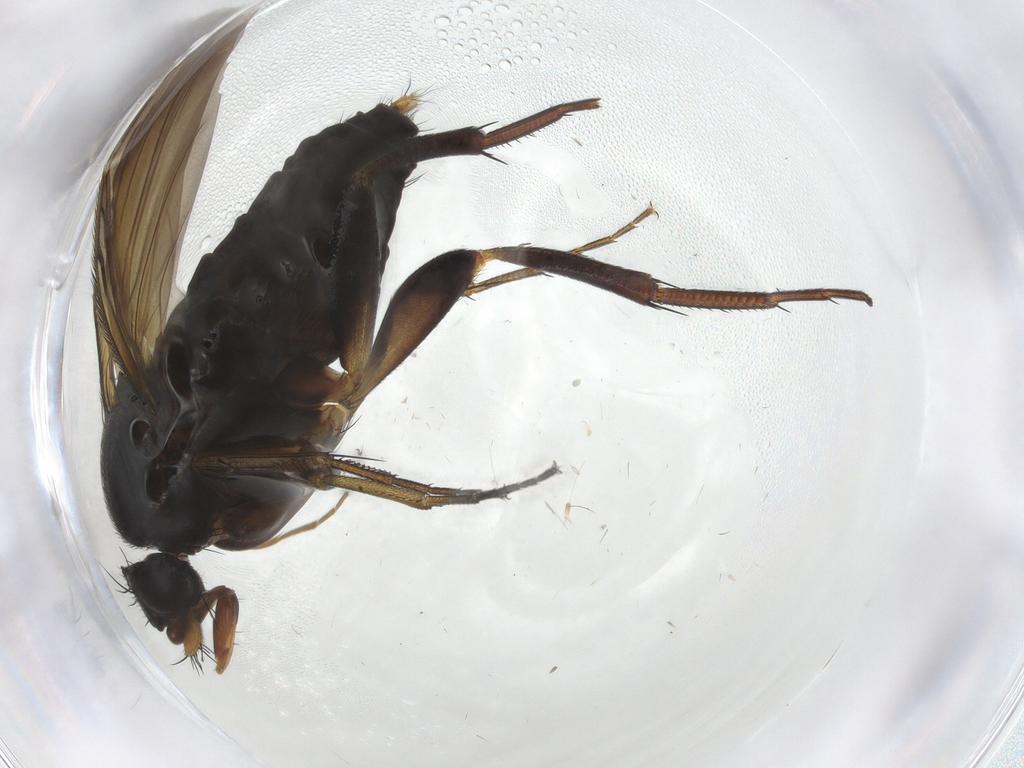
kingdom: Animalia
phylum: Arthropoda
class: Insecta
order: Diptera
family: Phoridae
